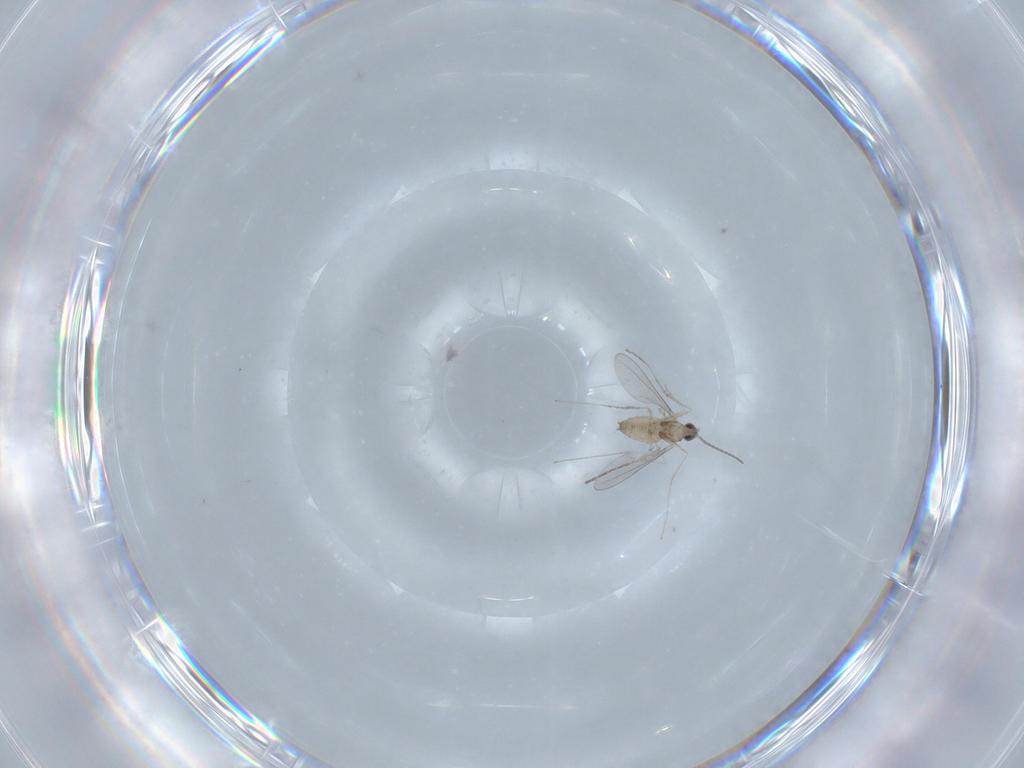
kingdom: Animalia
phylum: Arthropoda
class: Insecta
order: Diptera
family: Cecidomyiidae
